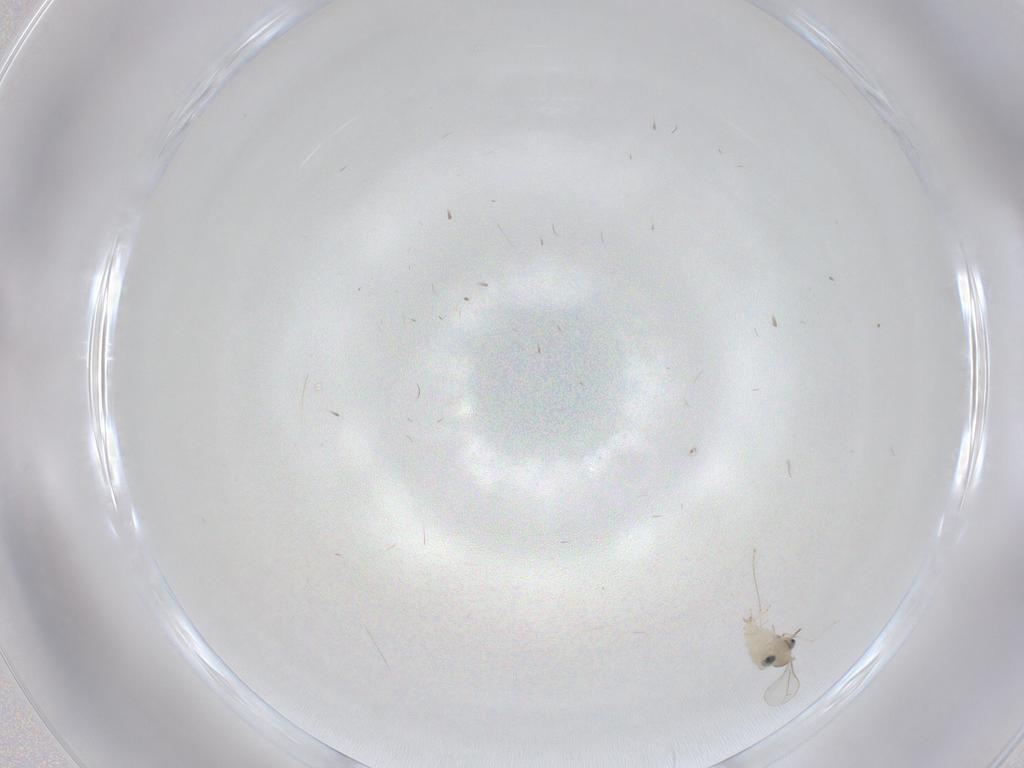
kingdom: Animalia
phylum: Arthropoda
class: Insecta
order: Diptera
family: Cecidomyiidae
